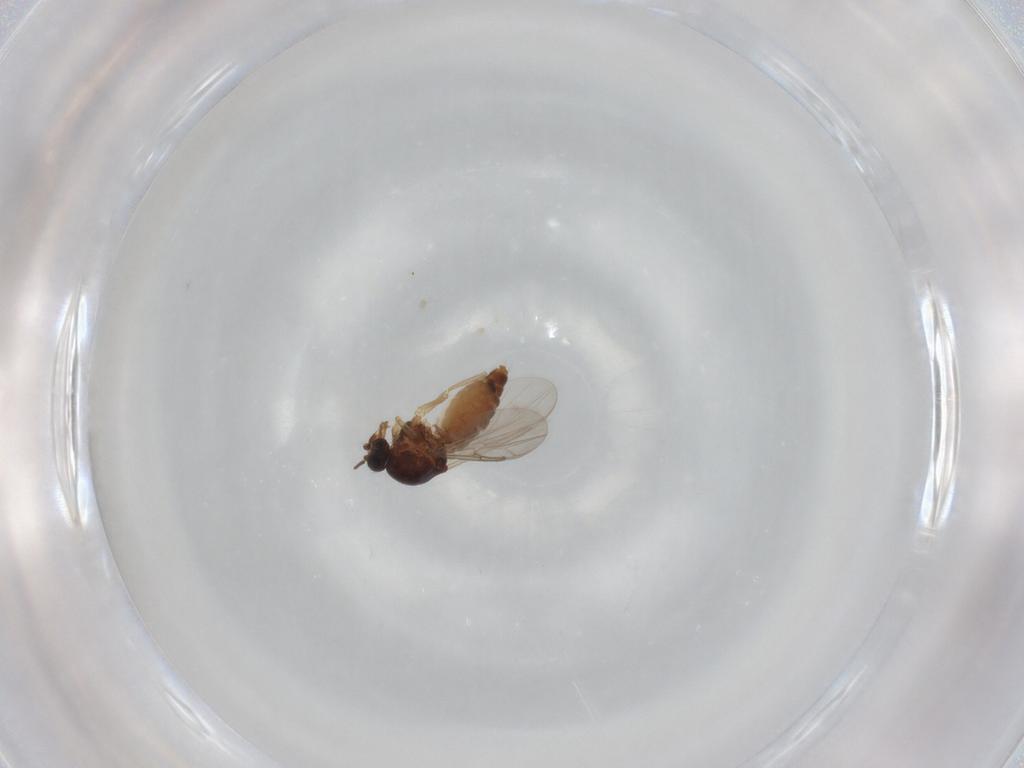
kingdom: Animalia
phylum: Arthropoda
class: Insecta
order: Diptera
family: Ceratopogonidae
